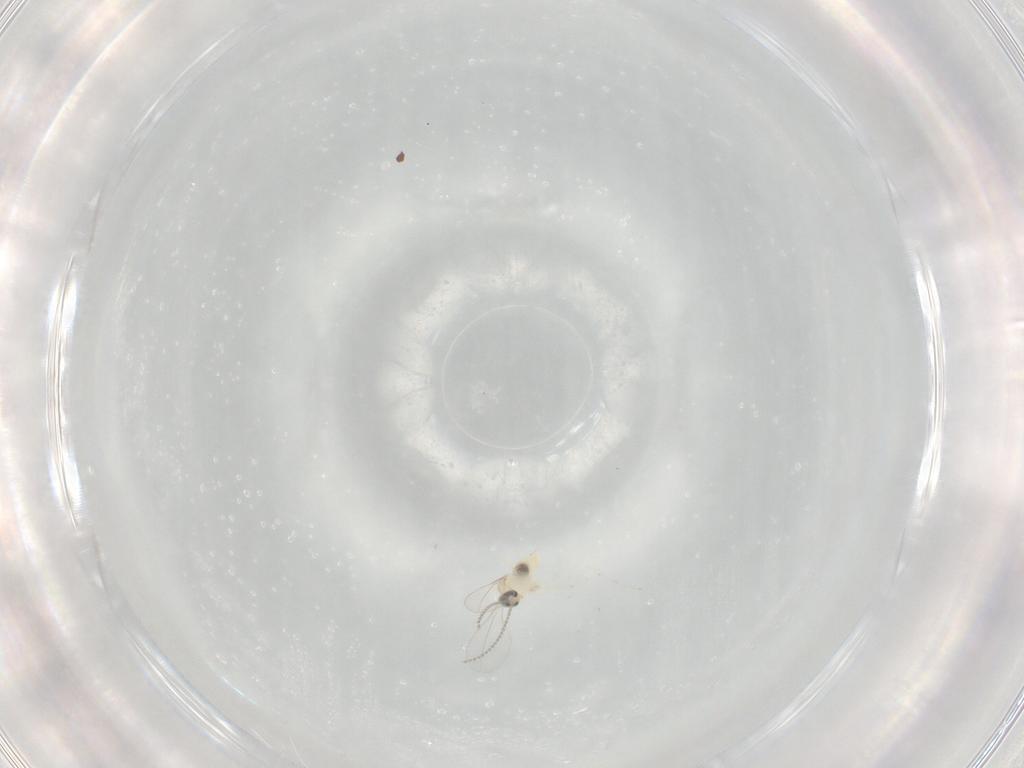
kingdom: Animalia
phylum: Arthropoda
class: Insecta
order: Diptera
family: Cecidomyiidae
